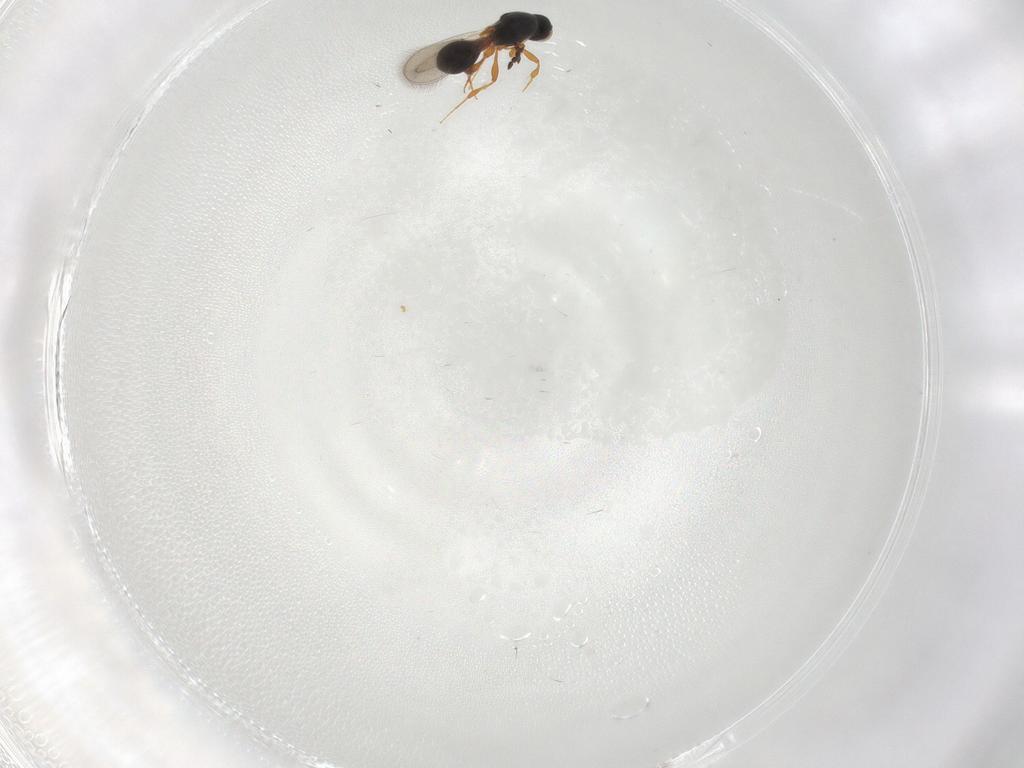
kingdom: Animalia
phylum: Arthropoda
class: Insecta
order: Hymenoptera
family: Platygastridae
